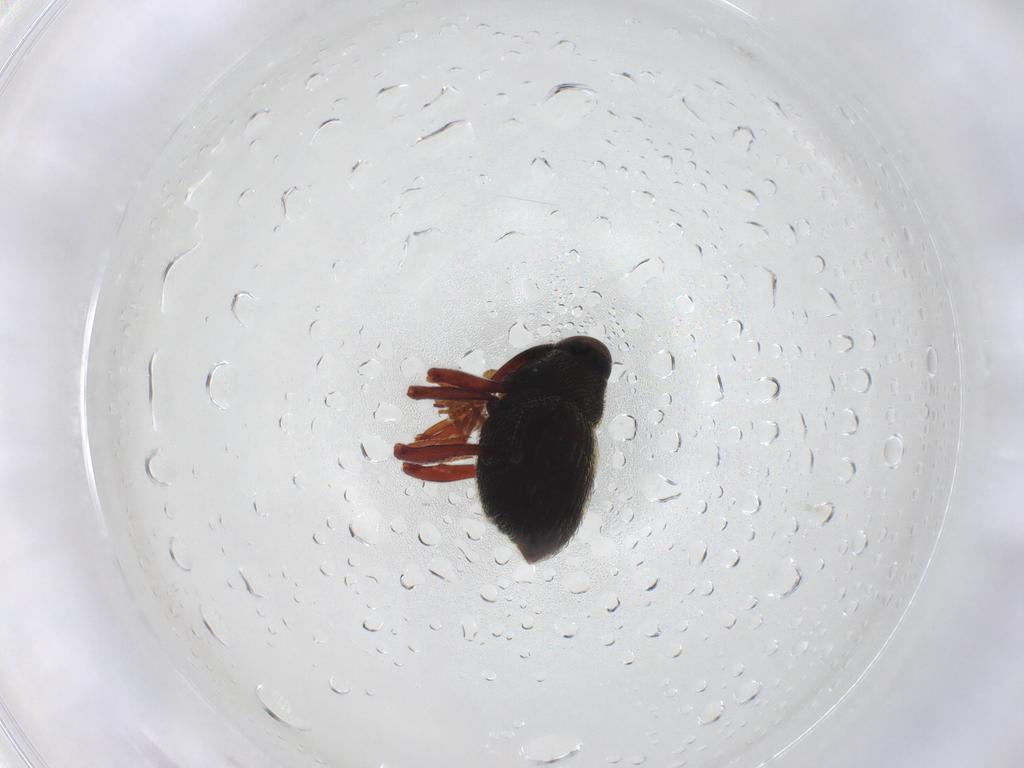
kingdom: Animalia
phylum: Arthropoda
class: Insecta
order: Coleoptera
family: Curculionidae
